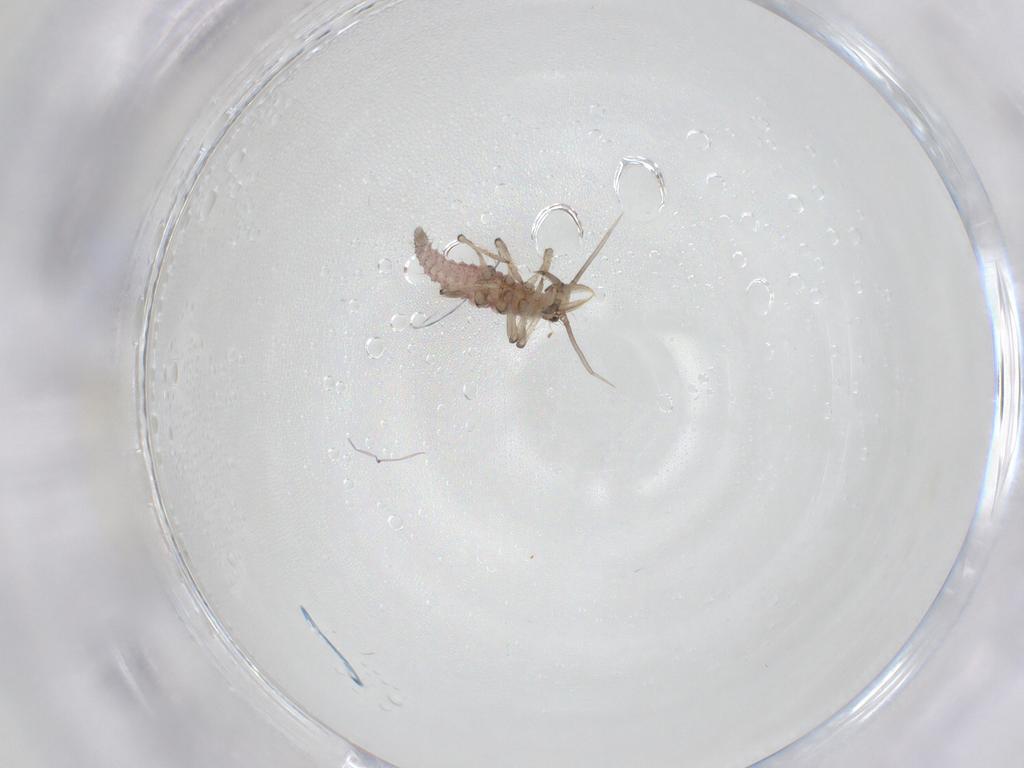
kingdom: Animalia
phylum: Arthropoda
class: Insecta
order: Neuroptera
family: Hemerobiidae
